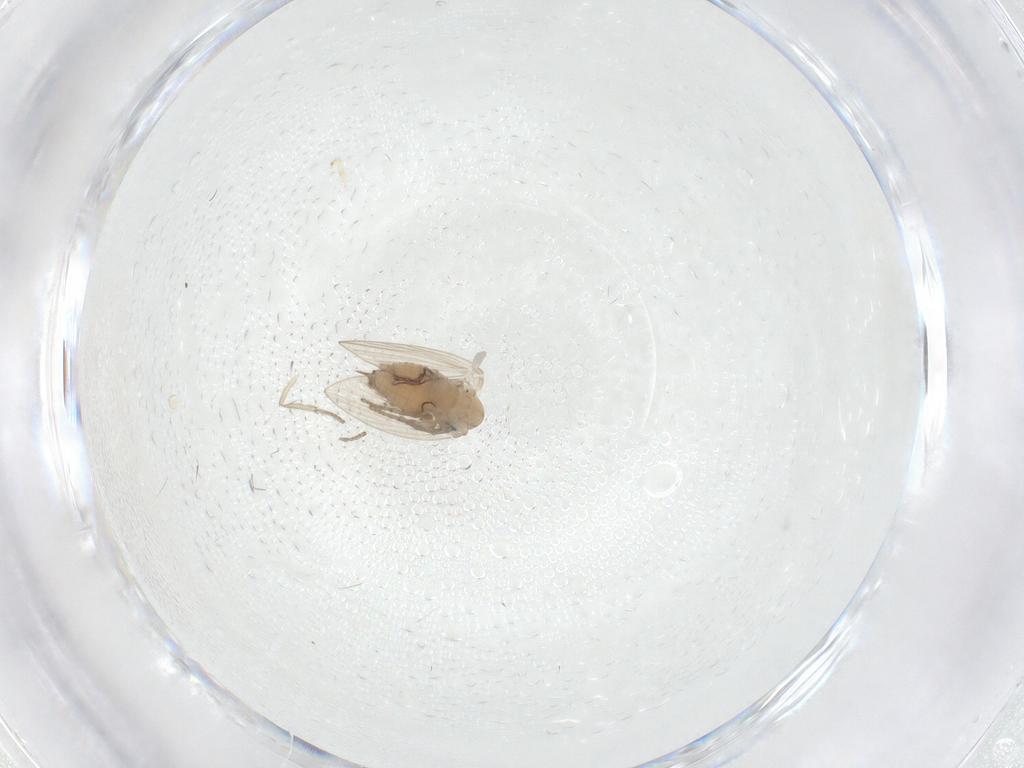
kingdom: Animalia
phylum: Arthropoda
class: Insecta
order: Diptera
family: Psychodidae
